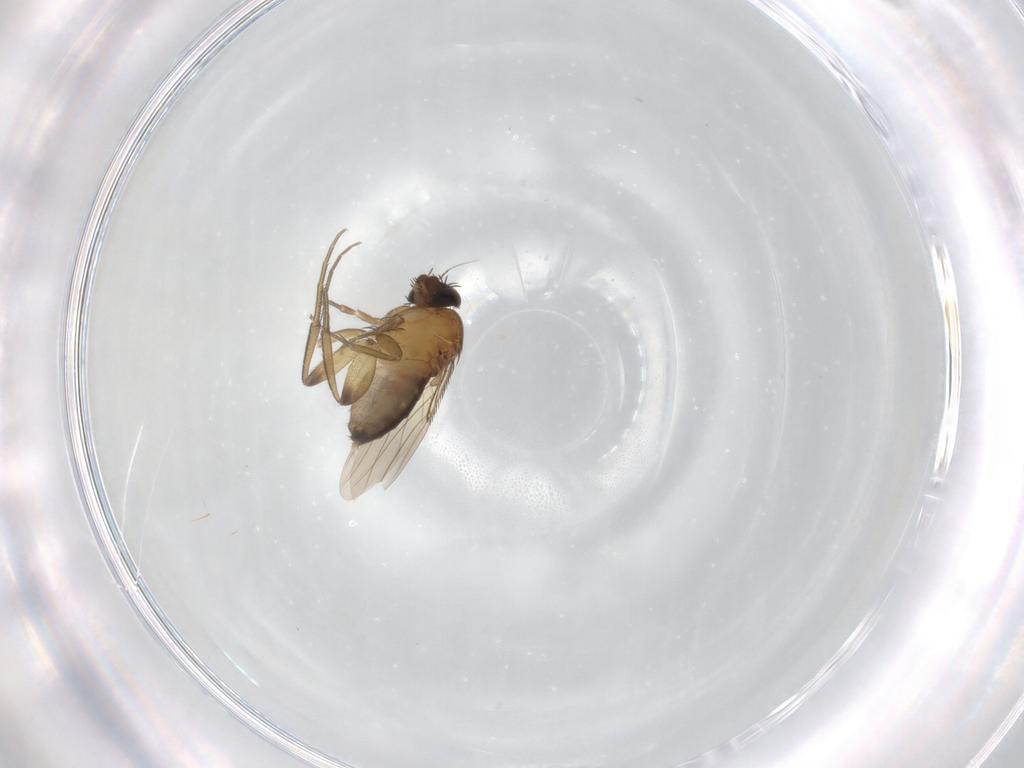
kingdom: Animalia
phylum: Arthropoda
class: Insecta
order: Diptera
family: Phoridae
